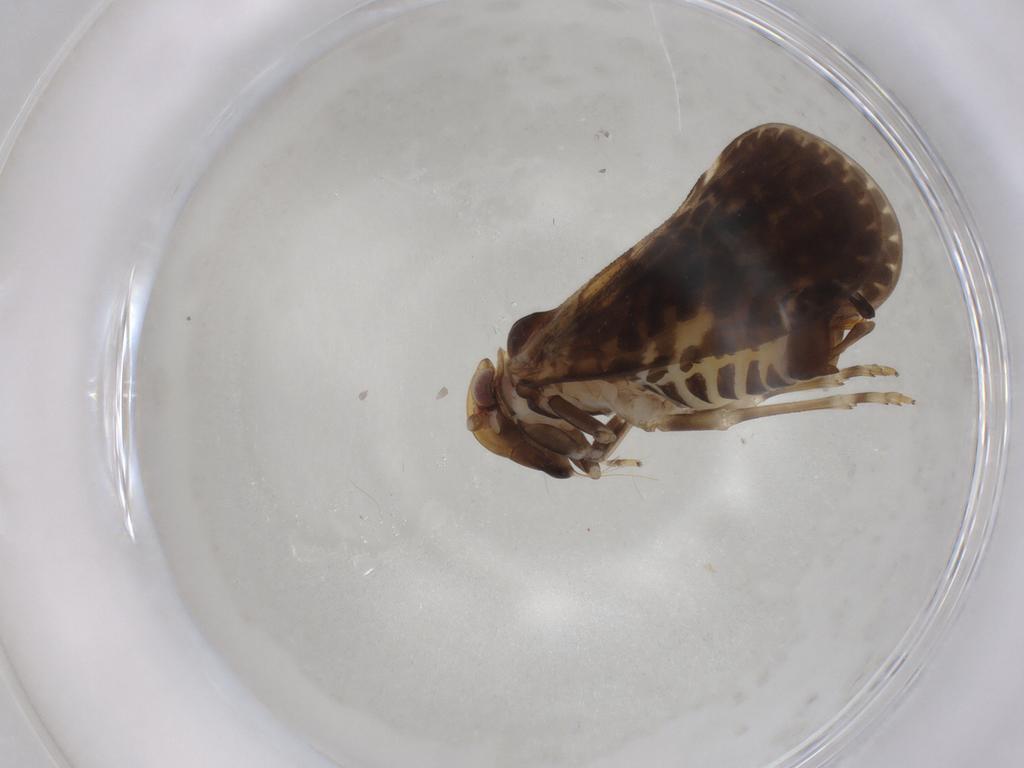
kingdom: Animalia
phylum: Arthropoda
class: Insecta
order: Hemiptera
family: Cixiidae
